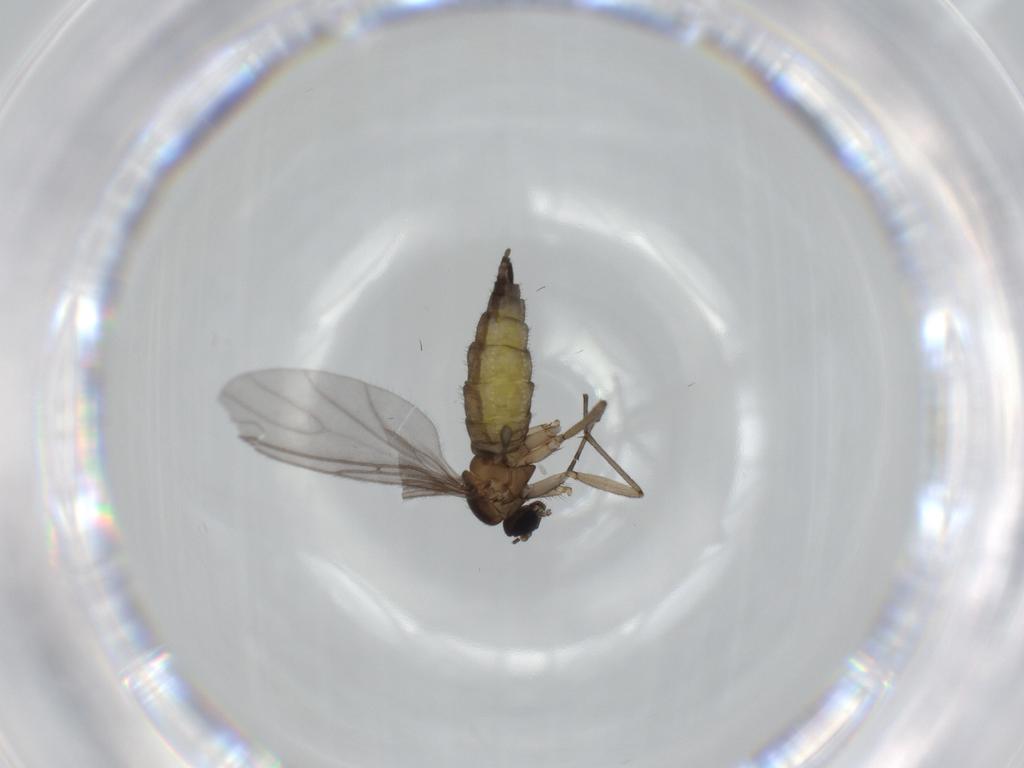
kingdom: Animalia
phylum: Arthropoda
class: Insecta
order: Diptera
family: Sciaridae
